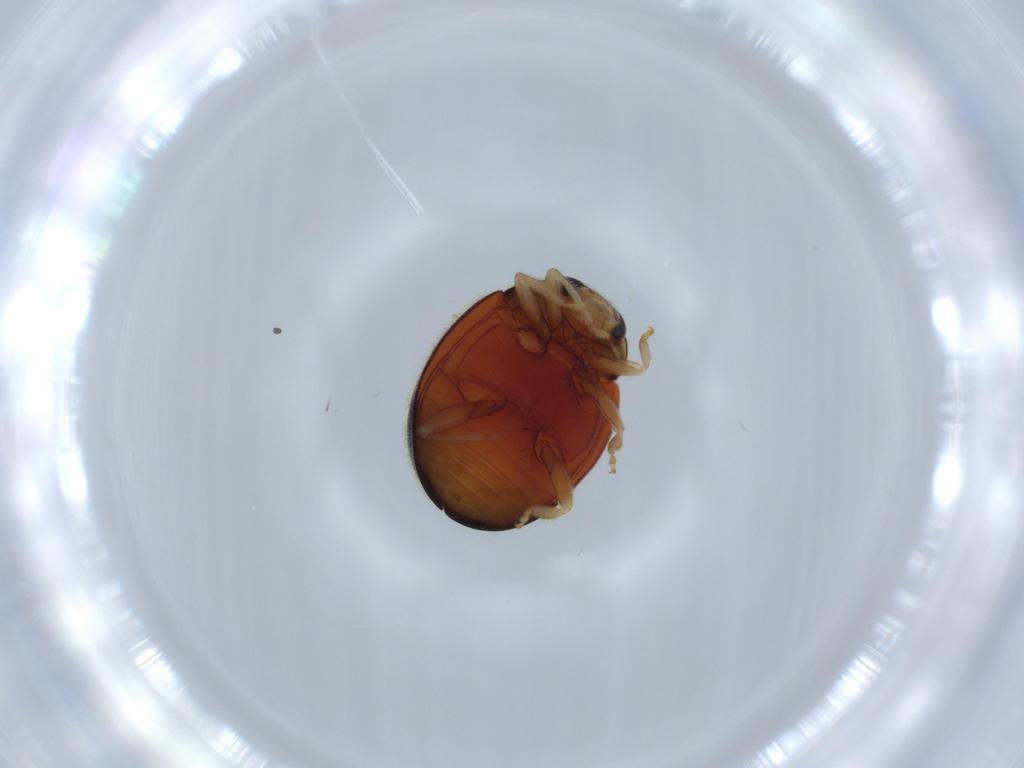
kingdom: Animalia
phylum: Arthropoda
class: Insecta
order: Coleoptera
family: Coccinellidae
